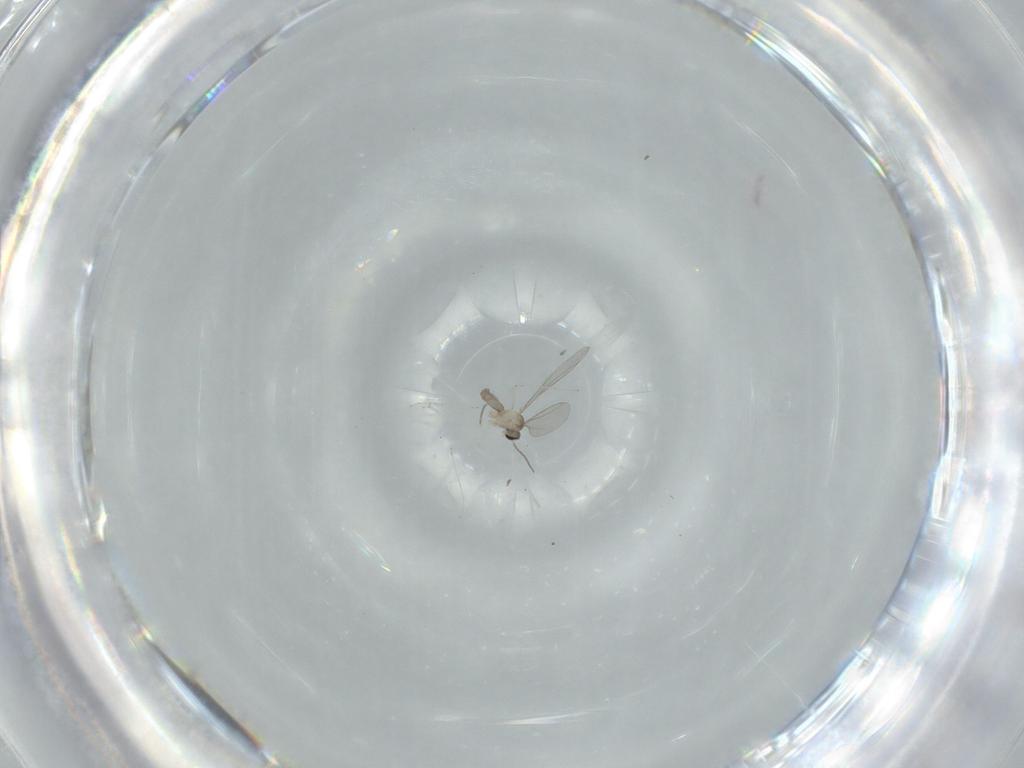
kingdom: Animalia
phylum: Arthropoda
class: Insecta
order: Diptera
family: Cecidomyiidae
